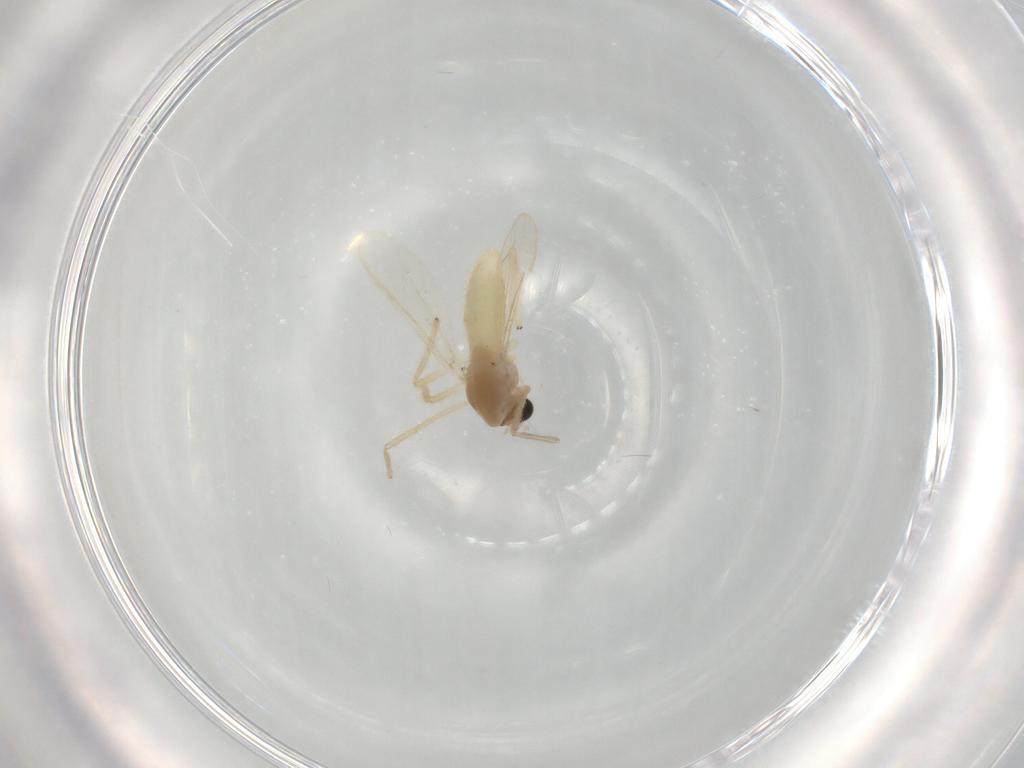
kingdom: Animalia
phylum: Arthropoda
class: Insecta
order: Diptera
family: Chironomidae
